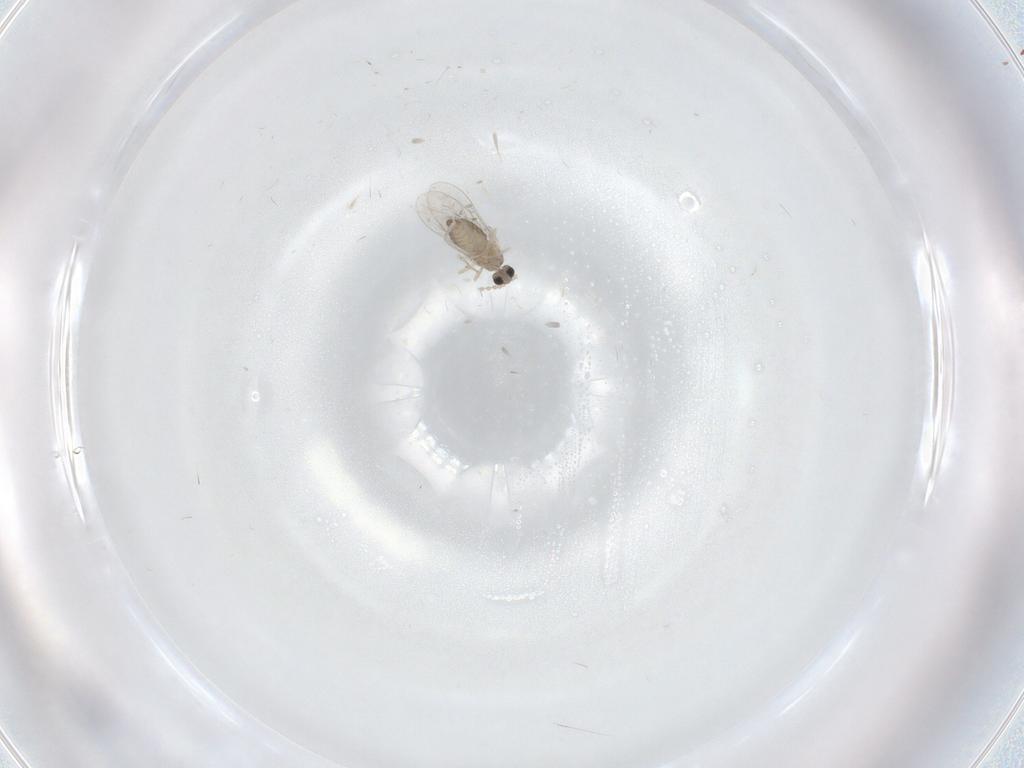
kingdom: Animalia
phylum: Arthropoda
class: Insecta
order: Diptera
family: Cecidomyiidae
